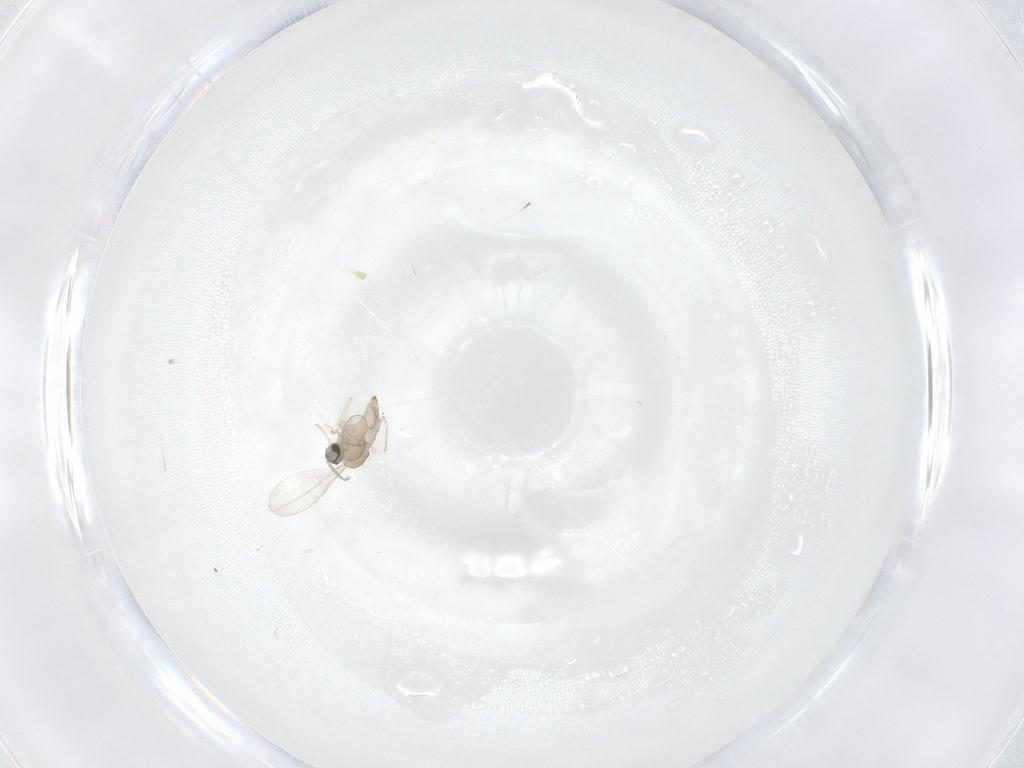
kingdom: Animalia
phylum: Arthropoda
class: Insecta
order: Diptera
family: Cecidomyiidae
